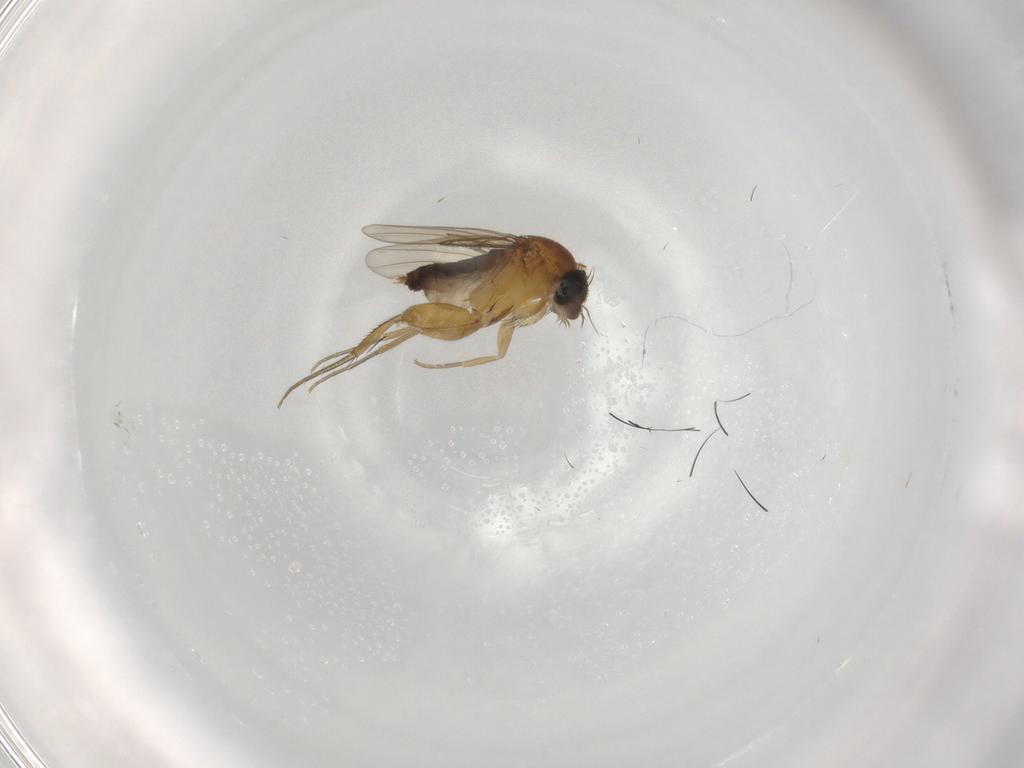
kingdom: Animalia
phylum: Arthropoda
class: Insecta
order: Diptera
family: Phoridae
